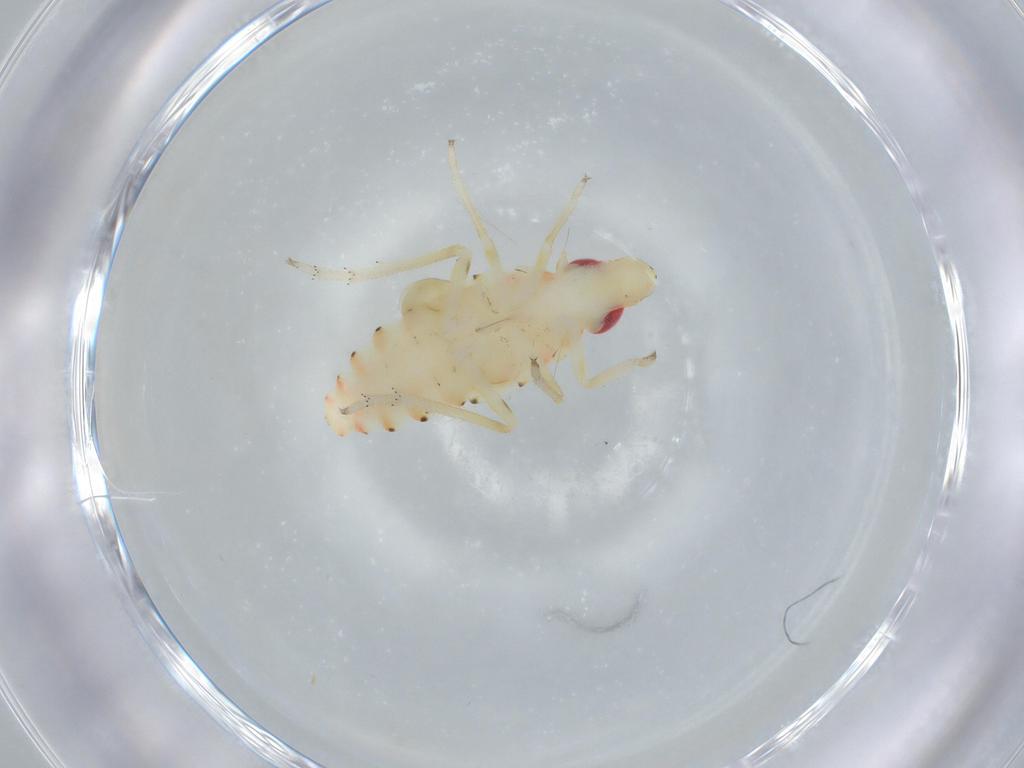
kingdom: Animalia
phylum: Arthropoda
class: Insecta
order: Hemiptera
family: Tropiduchidae
